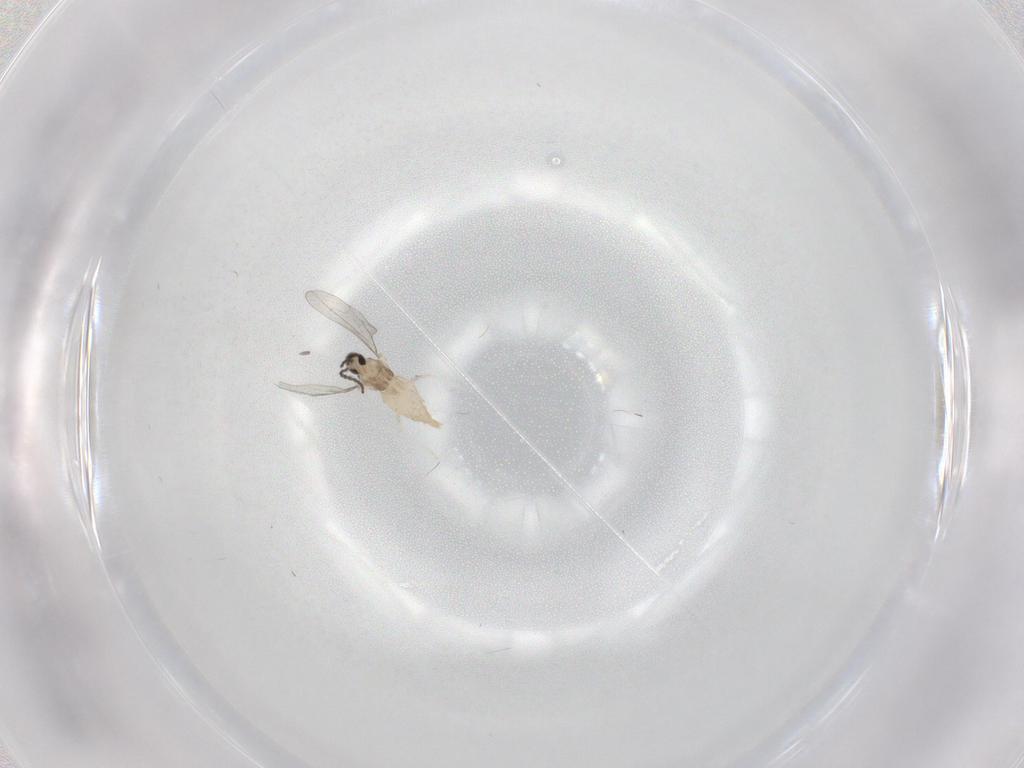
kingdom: Animalia
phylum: Arthropoda
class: Insecta
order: Diptera
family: Cecidomyiidae
